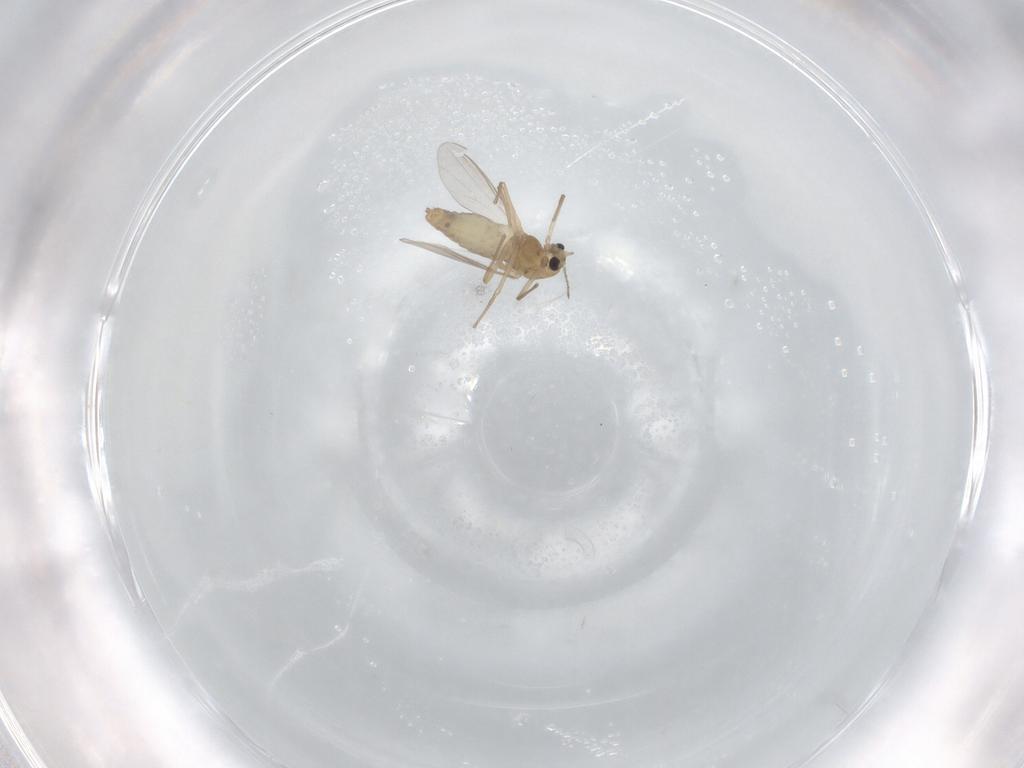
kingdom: Animalia
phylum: Arthropoda
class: Insecta
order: Diptera
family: Chironomidae
